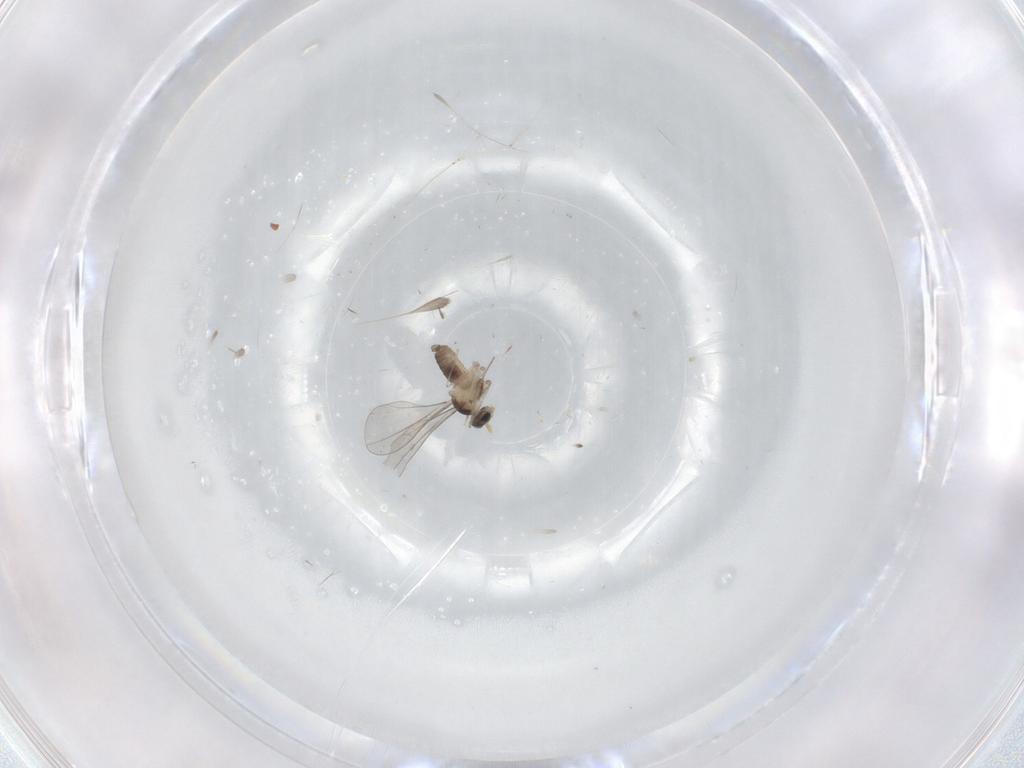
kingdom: Animalia
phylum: Arthropoda
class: Insecta
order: Diptera
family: Cecidomyiidae
